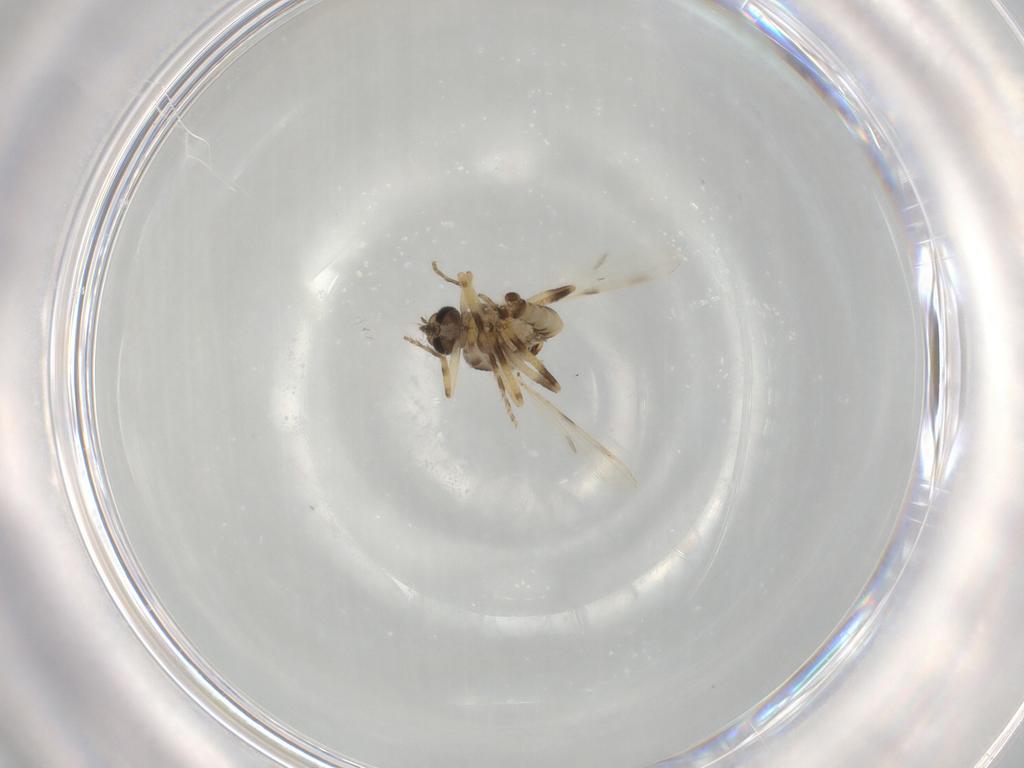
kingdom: Animalia
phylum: Arthropoda
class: Insecta
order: Diptera
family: Ceratopogonidae
